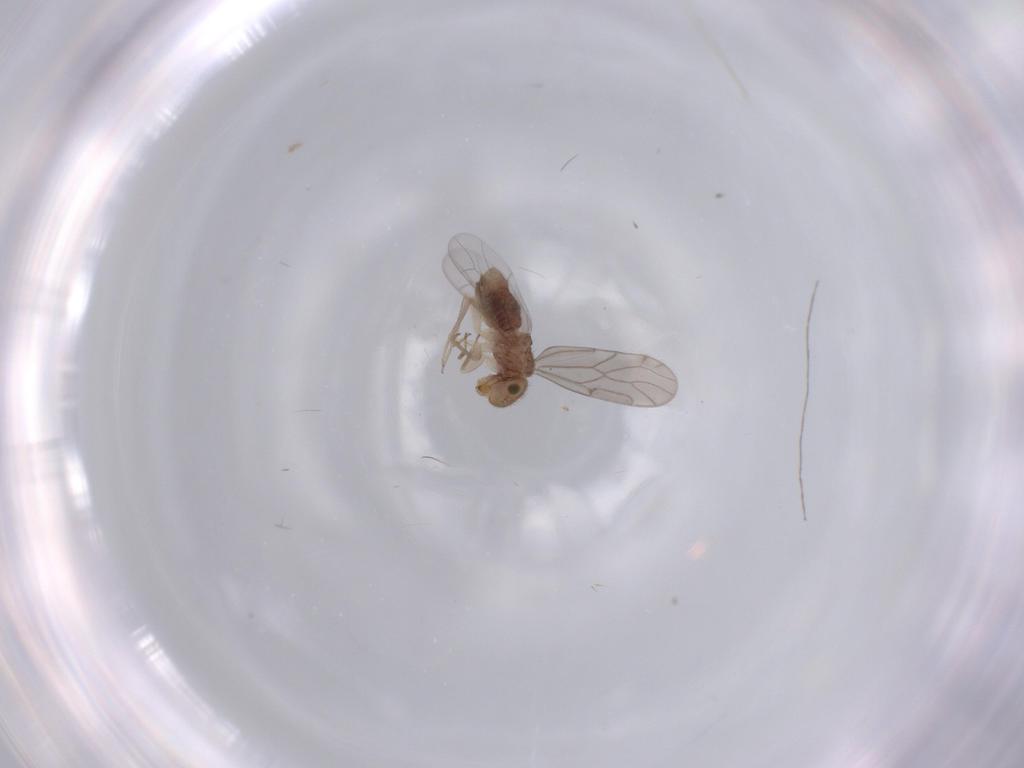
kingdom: Animalia
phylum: Arthropoda
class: Insecta
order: Psocodea
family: Ectopsocidae
